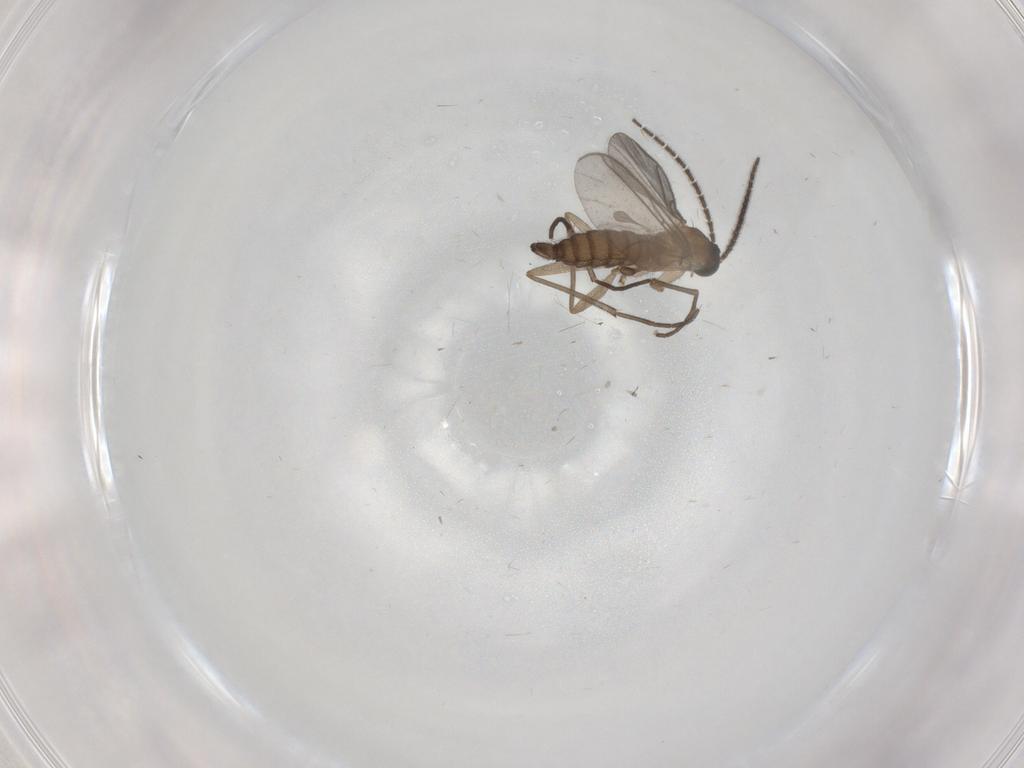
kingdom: Animalia
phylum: Arthropoda
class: Insecta
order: Diptera
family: Sciaridae
